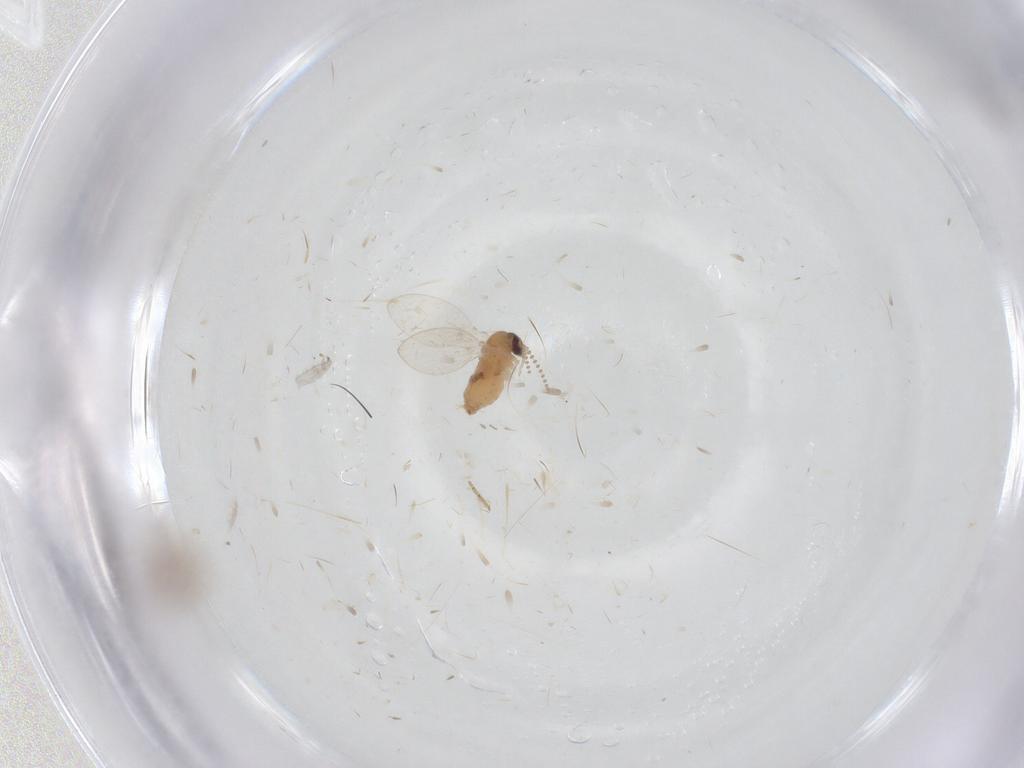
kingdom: Animalia
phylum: Arthropoda
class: Insecta
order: Diptera
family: Cecidomyiidae
